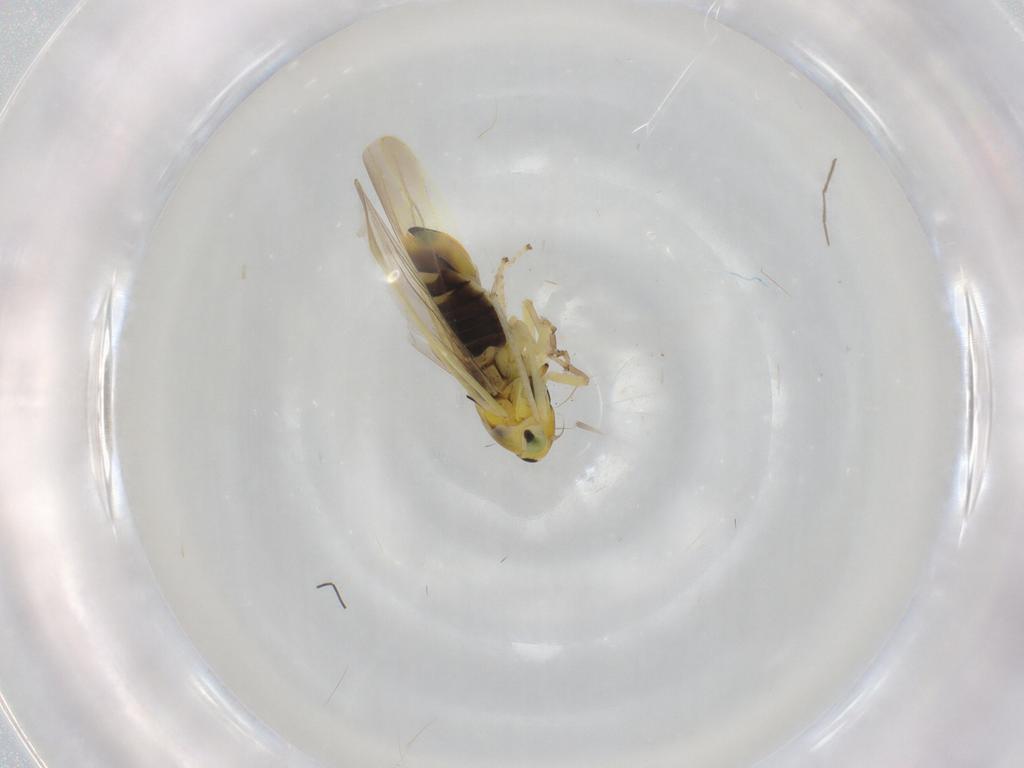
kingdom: Animalia
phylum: Arthropoda
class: Insecta
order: Hemiptera
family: Cicadellidae
